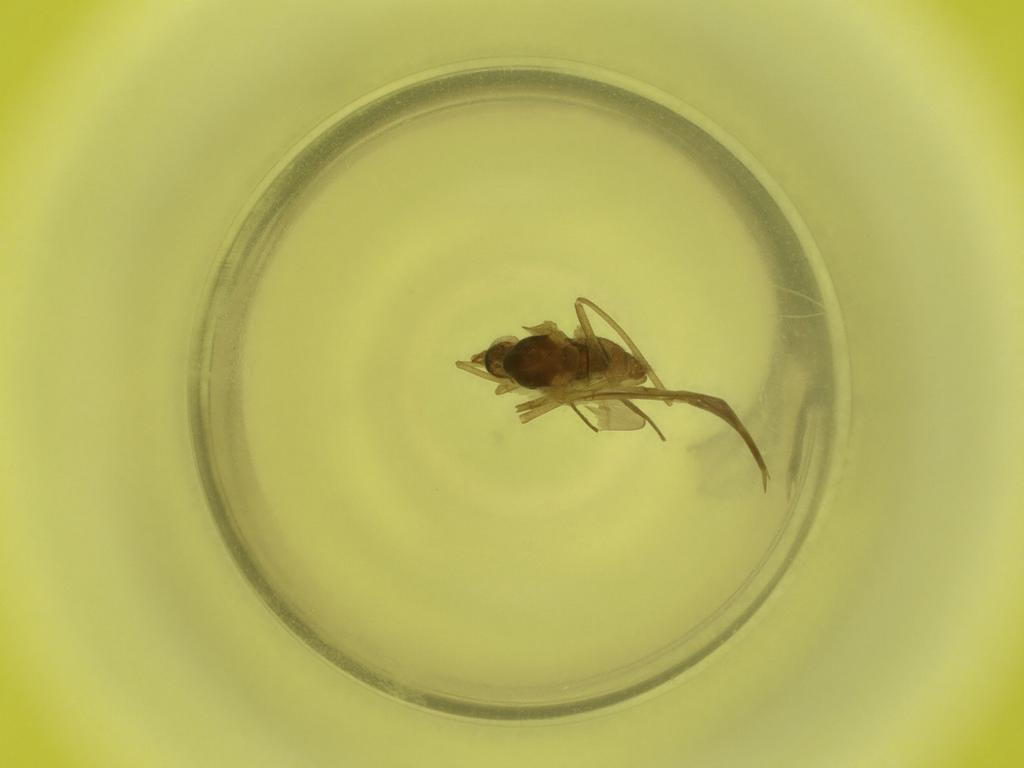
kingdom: Animalia
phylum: Arthropoda
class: Insecta
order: Diptera
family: Cecidomyiidae
